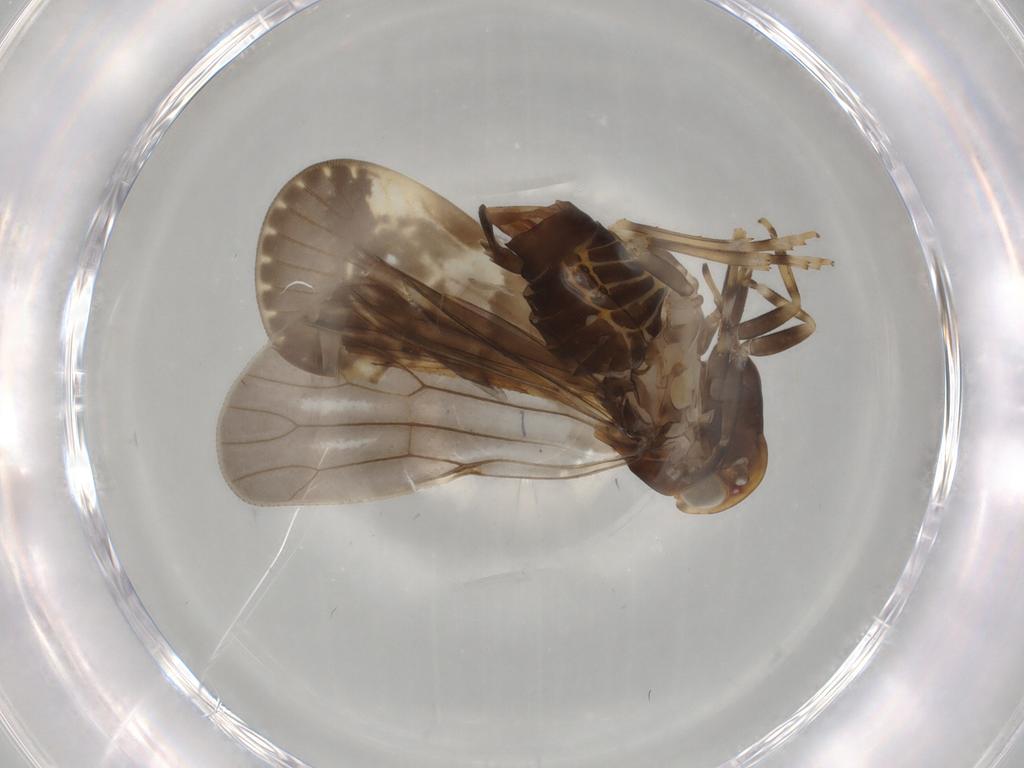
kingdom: Animalia
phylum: Arthropoda
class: Insecta
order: Hemiptera
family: Cixiidae
